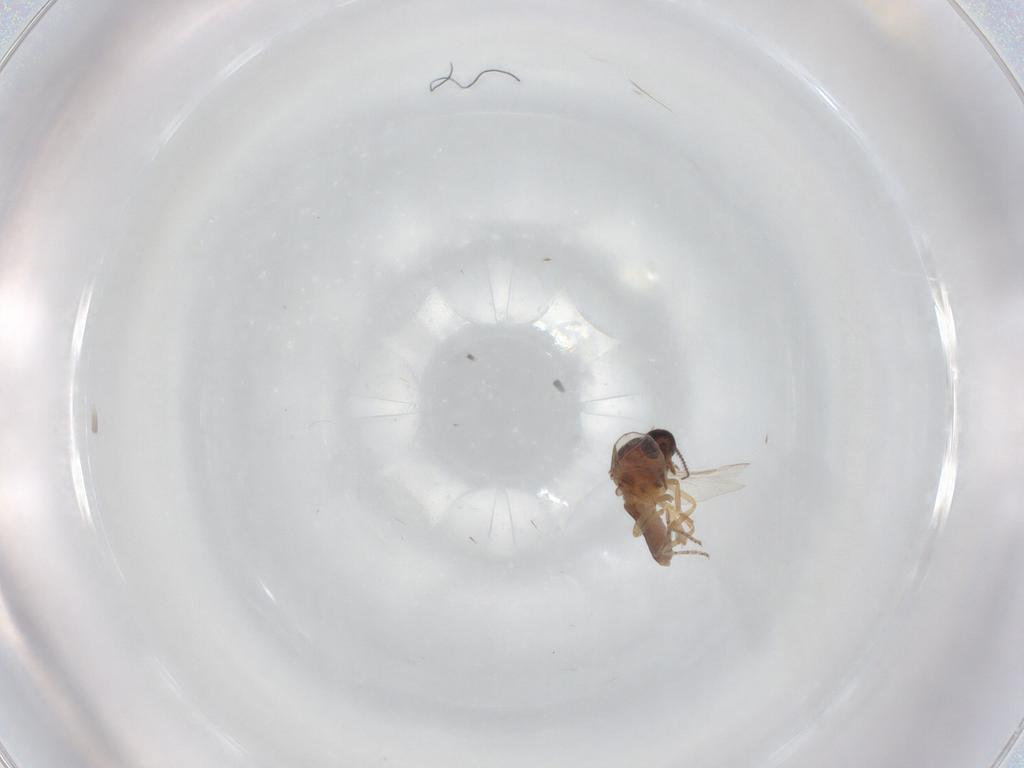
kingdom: Animalia
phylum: Arthropoda
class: Insecta
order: Diptera
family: Ceratopogonidae
